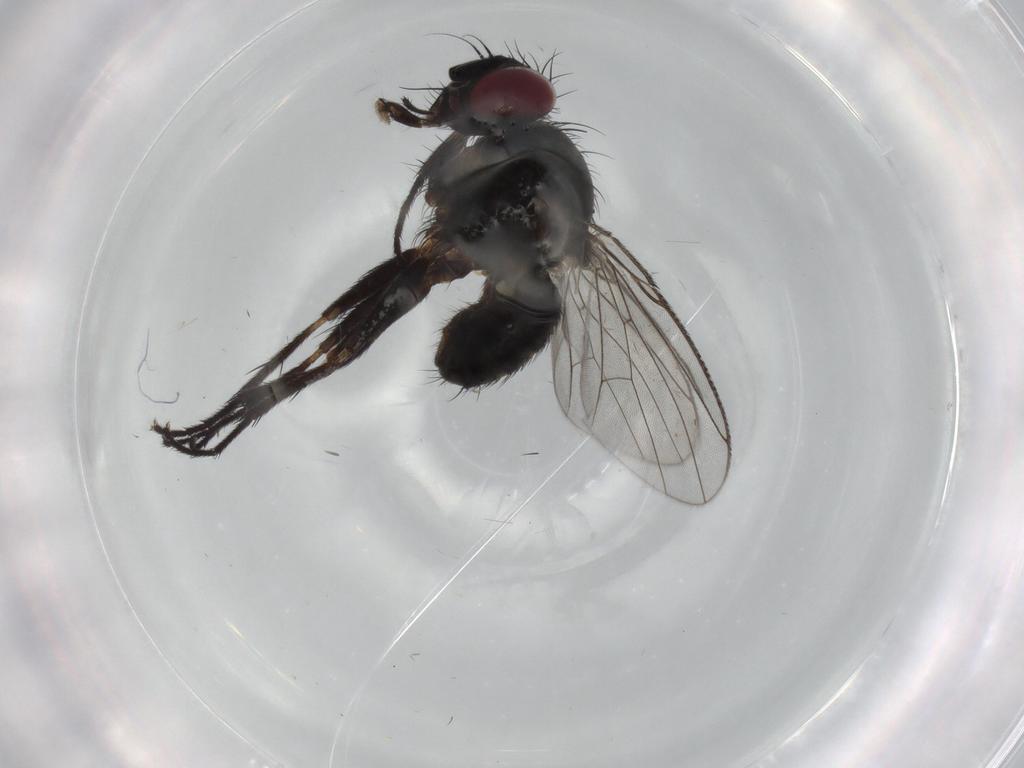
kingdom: Animalia
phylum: Arthropoda
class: Insecta
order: Diptera
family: Muscidae
